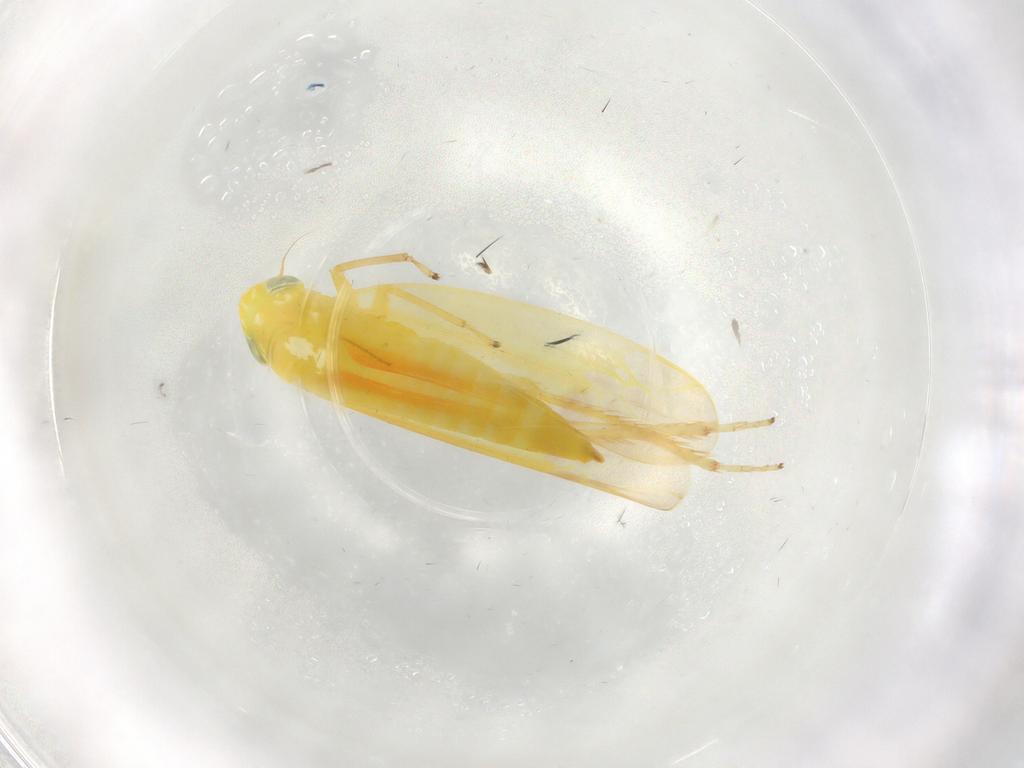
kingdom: Animalia
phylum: Arthropoda
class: Insecta
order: Hemiptera
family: Cicadellidae
